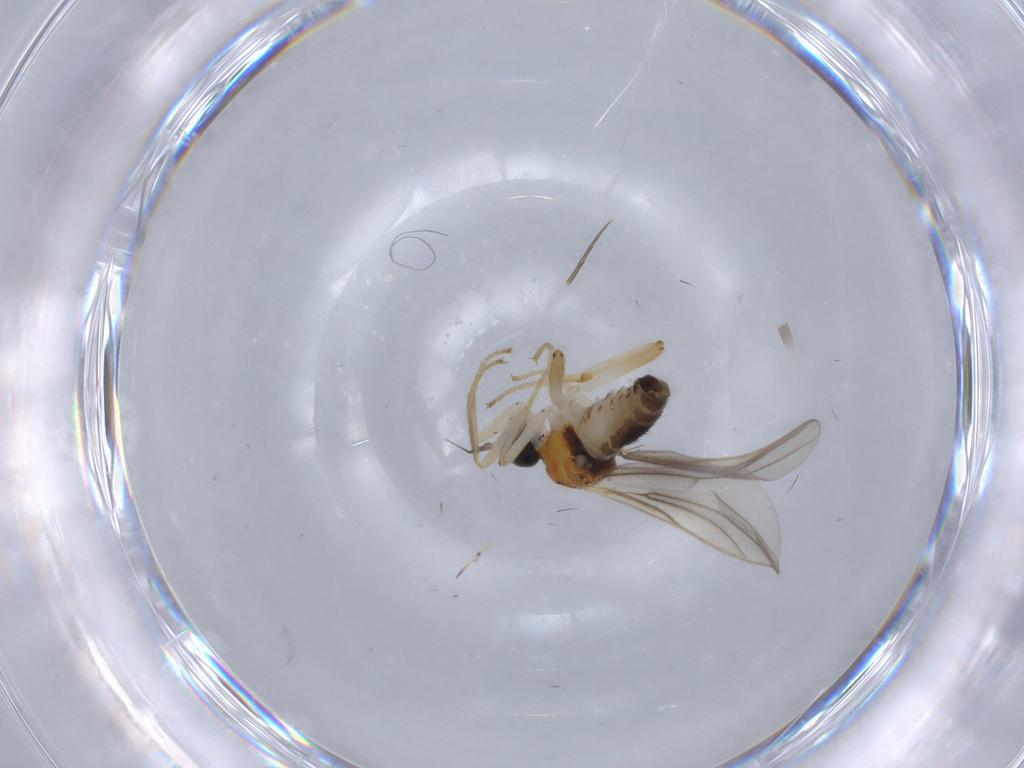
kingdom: Animalia
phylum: Arthropoda
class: Insecta
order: Diptera
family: Hybotidae
